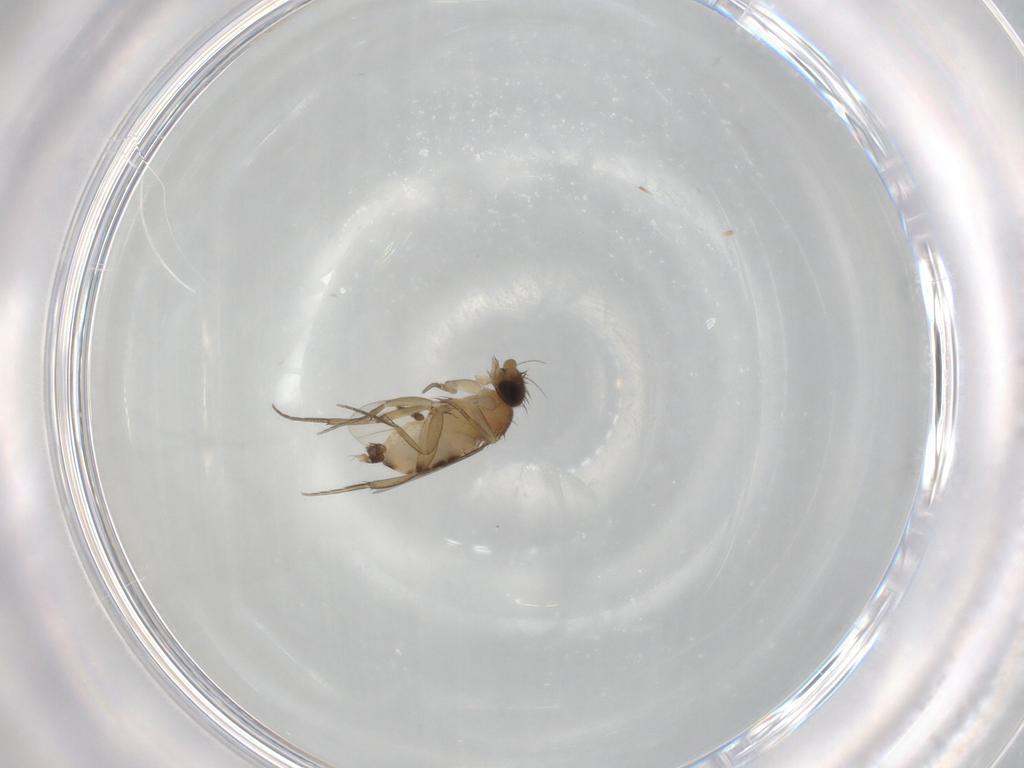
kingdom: Animalia
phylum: Arthropoda
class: Insecta
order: Diptera
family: Phoridae
